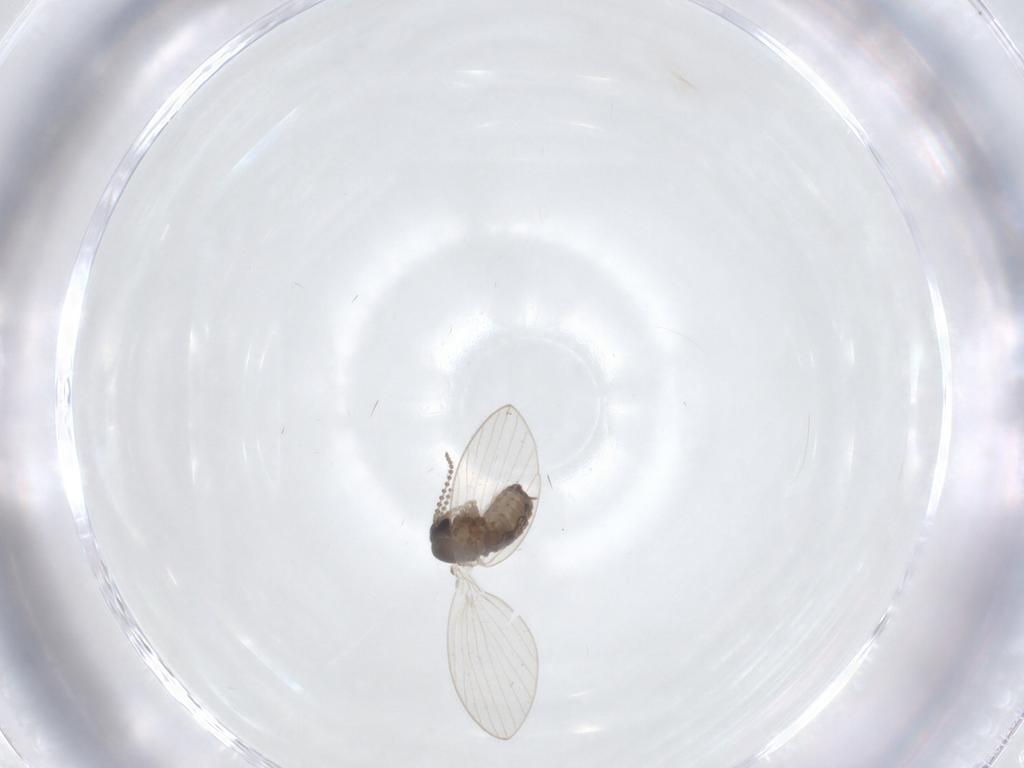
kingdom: Animalia
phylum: Arthropoda
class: Insecta
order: Diptera
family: Psychodidae
